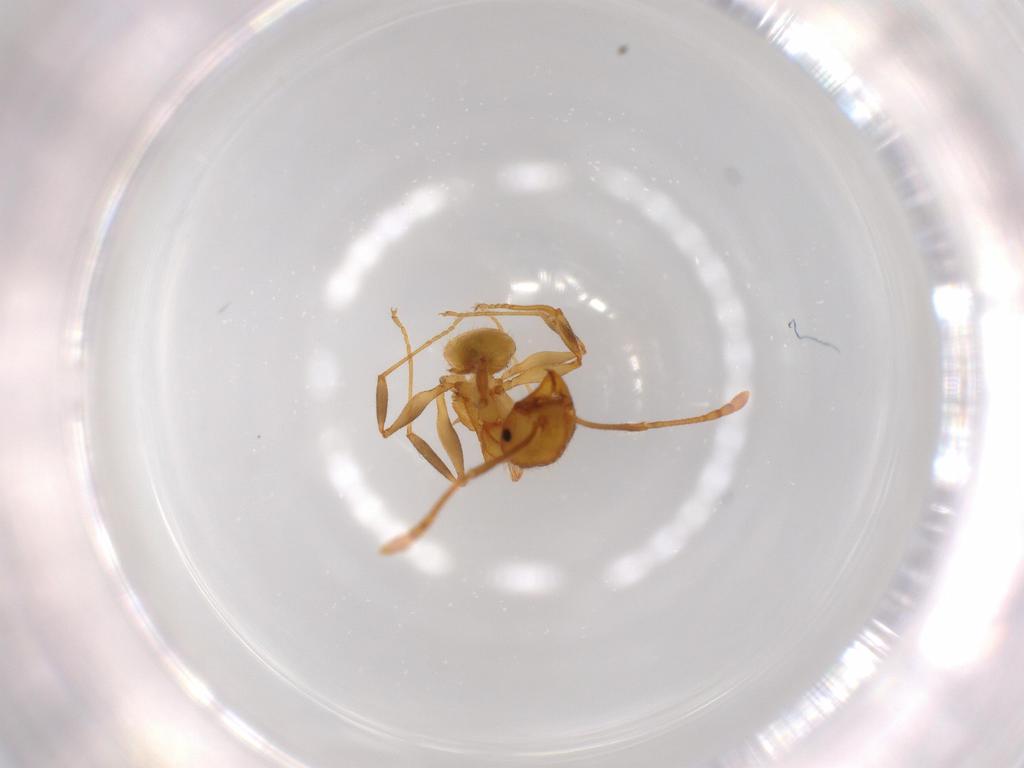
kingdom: Animalia
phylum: Arthropoda
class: Insecta
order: Hymenoptera
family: Formicidae
